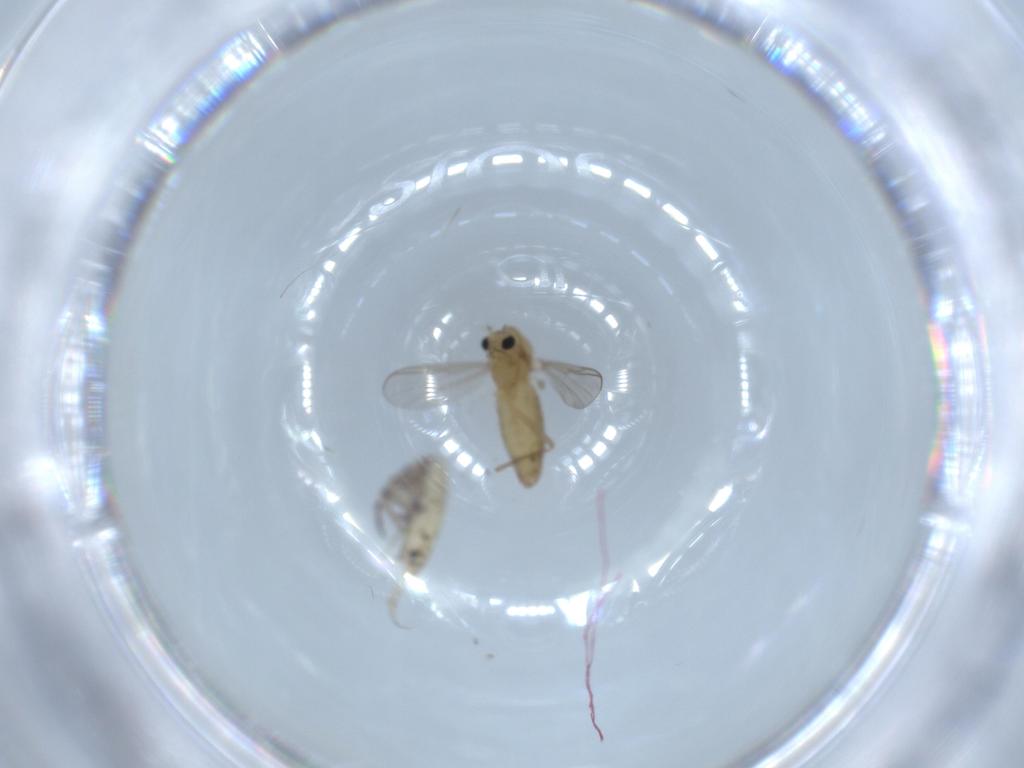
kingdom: Animalia
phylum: Arthropoda
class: Insecta
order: Diptera
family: Chironomidae
